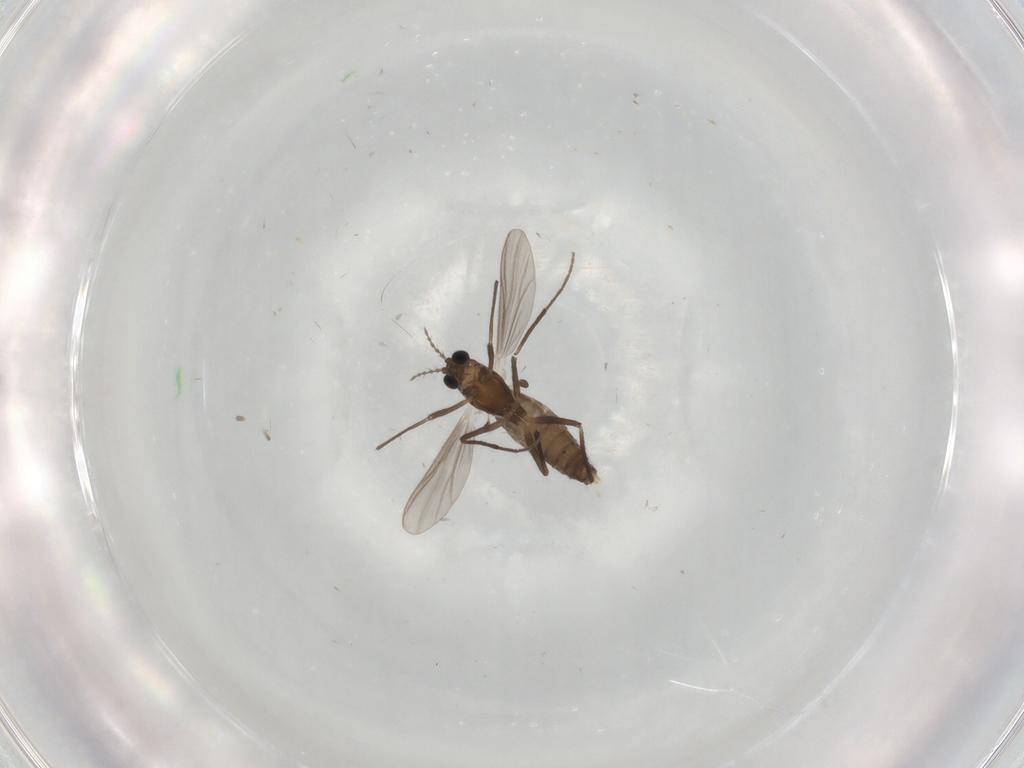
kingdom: Animalia
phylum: Arthropoda
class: Insecta
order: Diptera
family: Chironomidae
